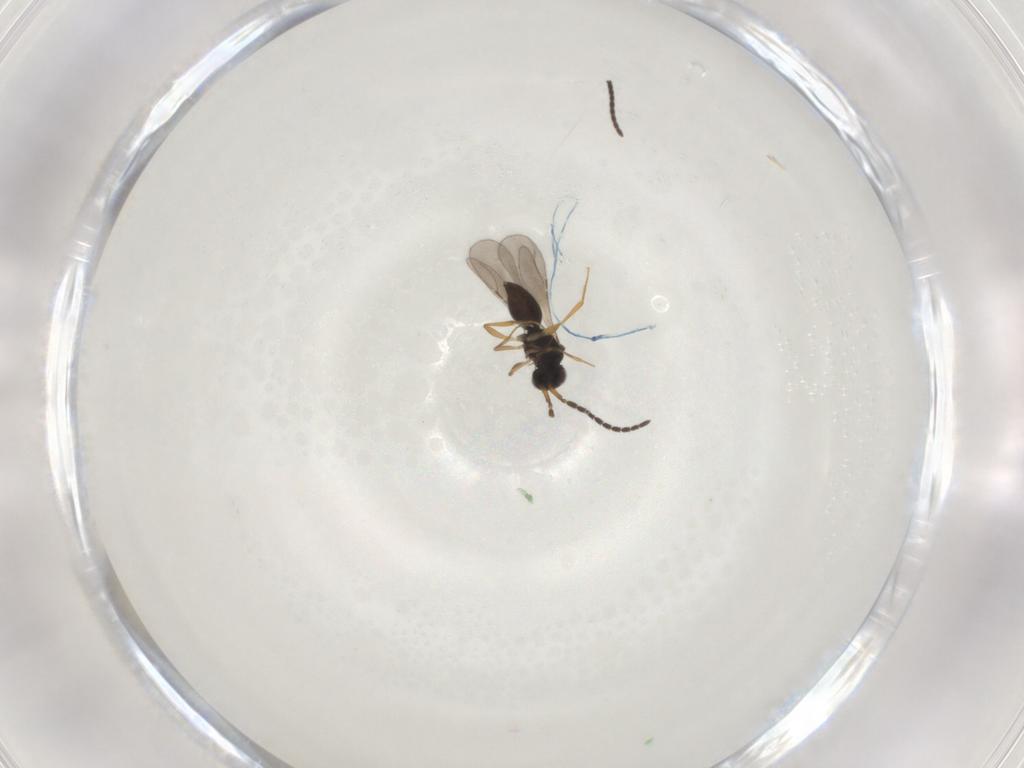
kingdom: Animalia
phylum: Arthropoda
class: Insecta
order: Hymenoptera
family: Ceraphronidae
